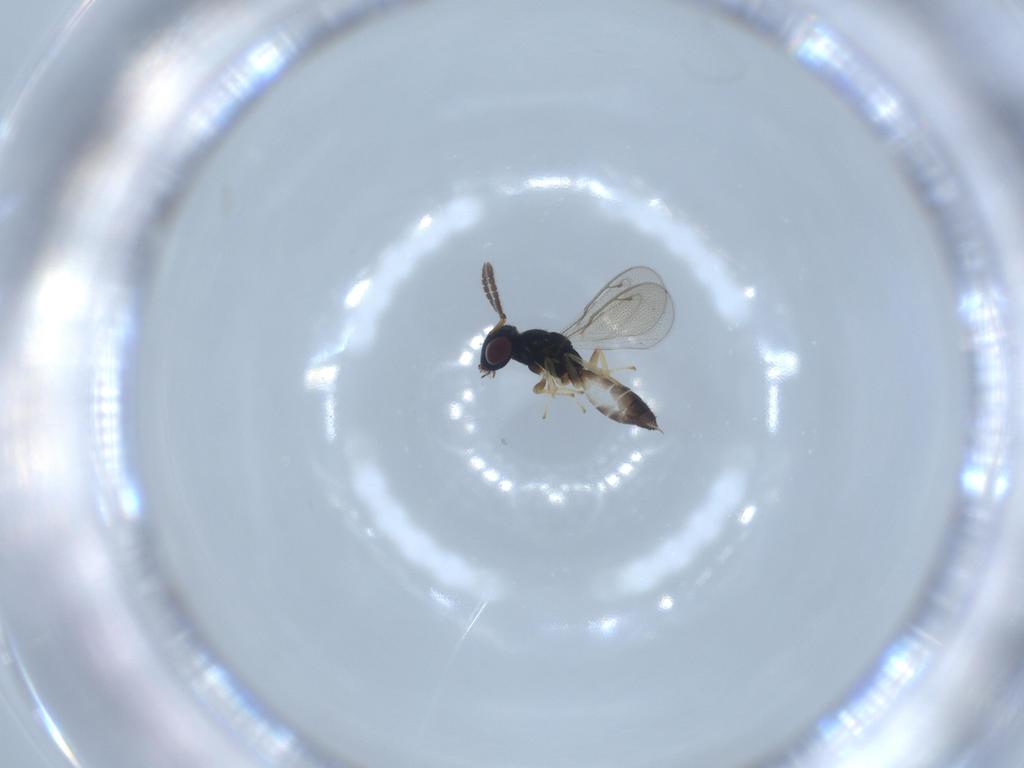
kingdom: Animalia
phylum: Arthropoda
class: Insecta
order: Hymenoptera
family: Pteromalidae
